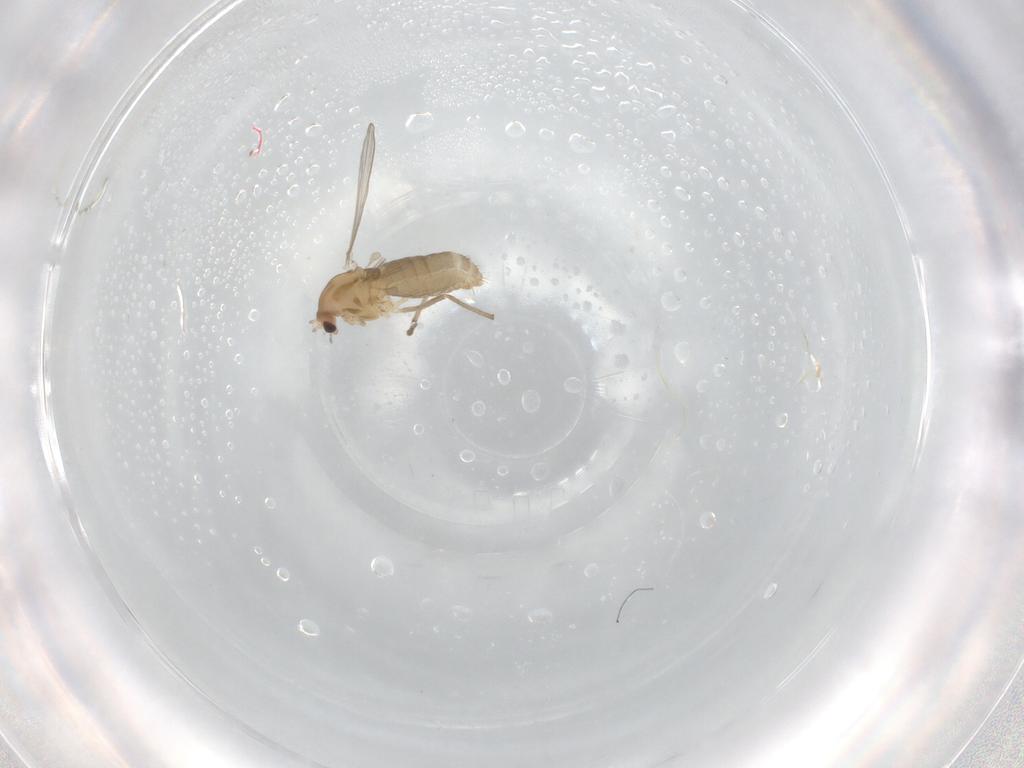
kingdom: Animalia
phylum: Arthropoda
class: Insecta
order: Diptera
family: Chironomidae
